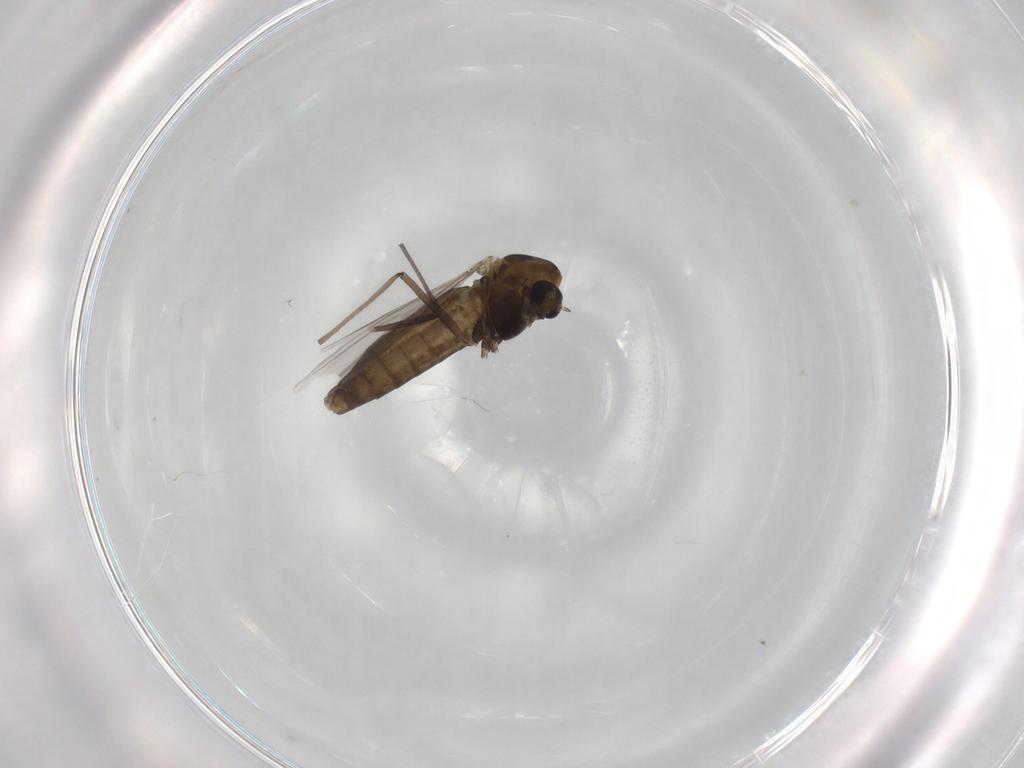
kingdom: Animalia
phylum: Arthropoda
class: Insecta
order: Diptera
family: Chironomidae
